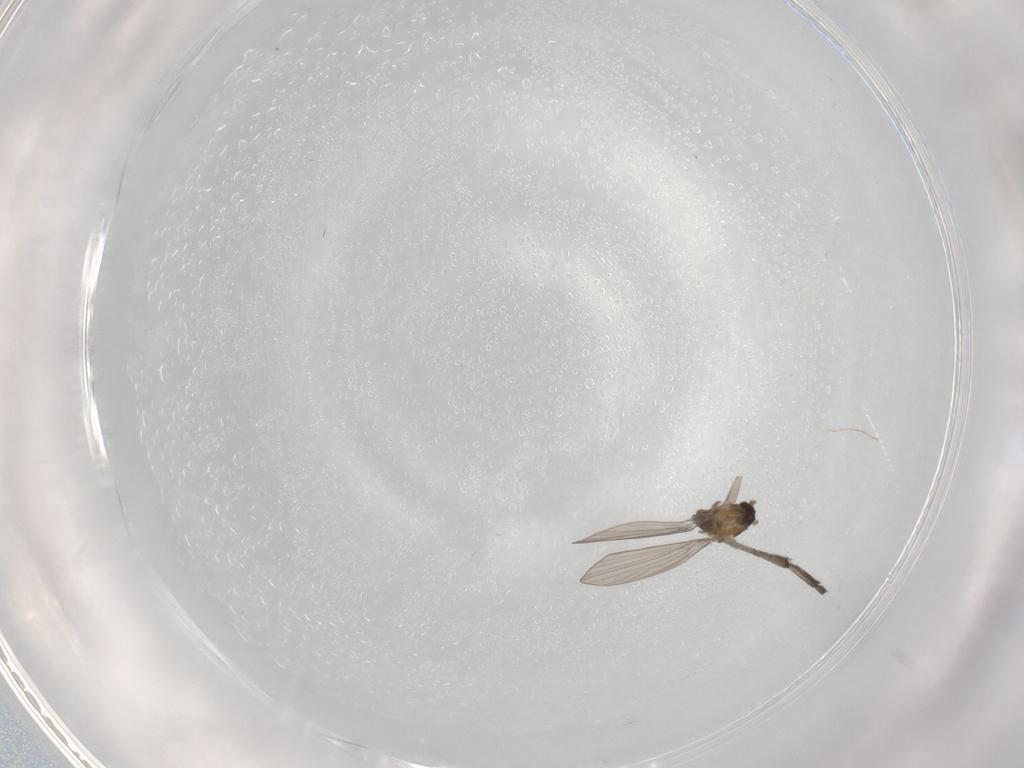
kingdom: Animalia
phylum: Arthropoda
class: Insecta
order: Diptera
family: Psychodidae
